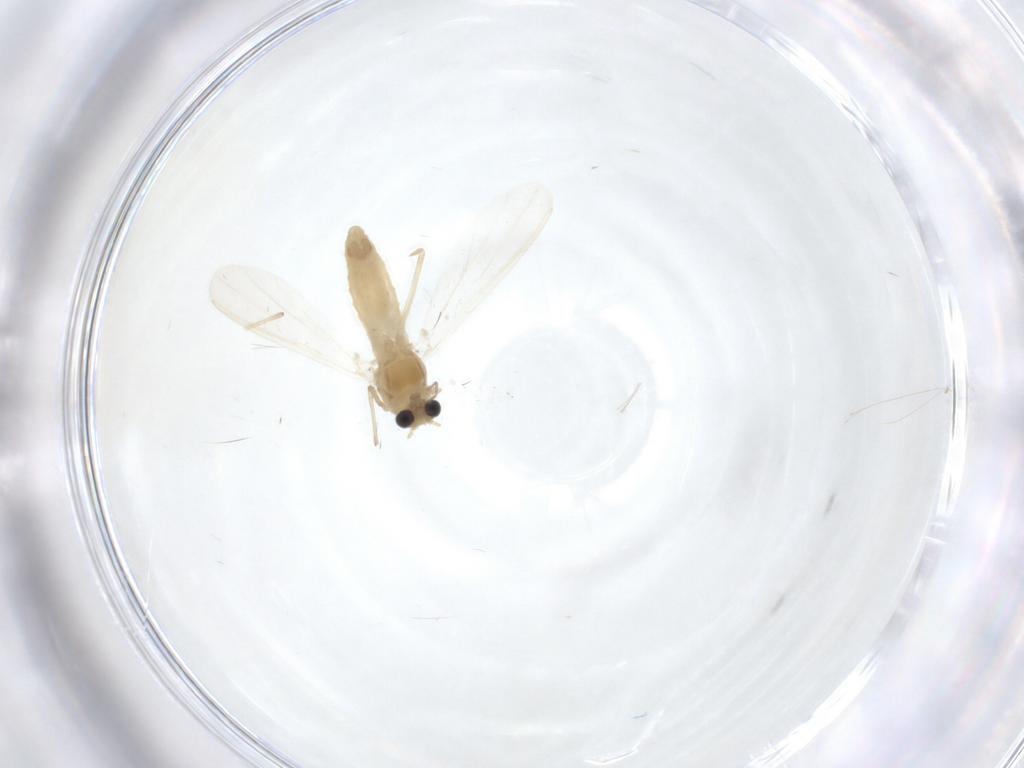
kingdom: Animalia
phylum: Arthropoda
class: Insecta
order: Diptera
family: Chironomidae
